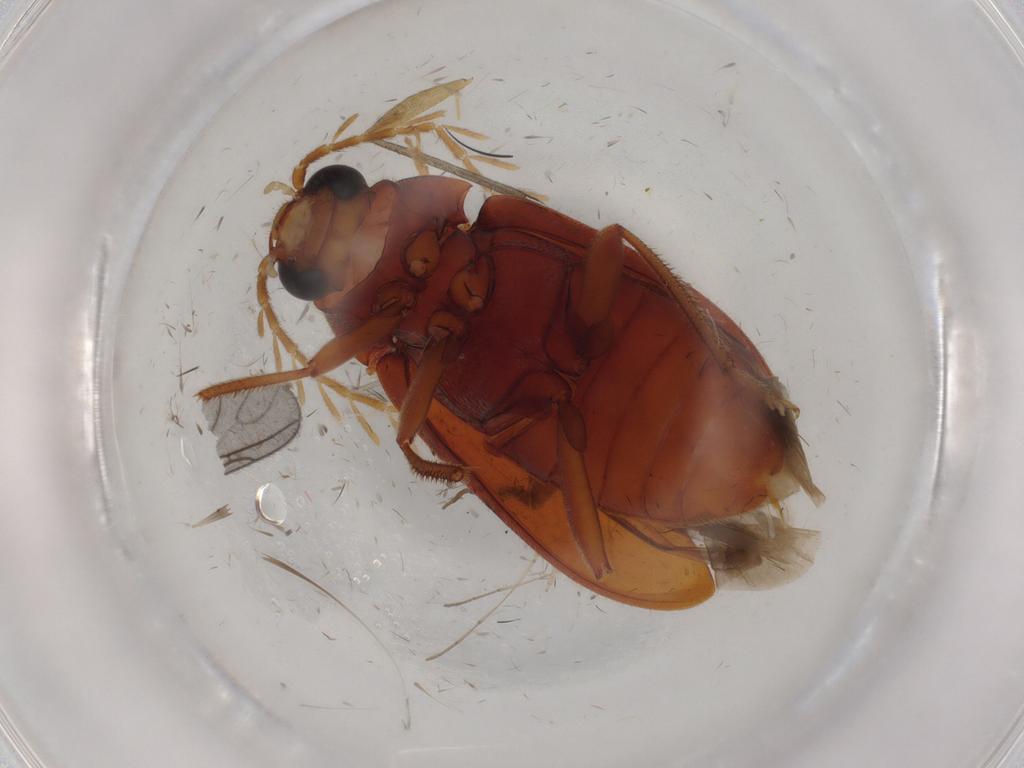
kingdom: Animalia
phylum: Arthropoda
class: Insecta
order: Coleoptera
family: Ptilodactylidae
